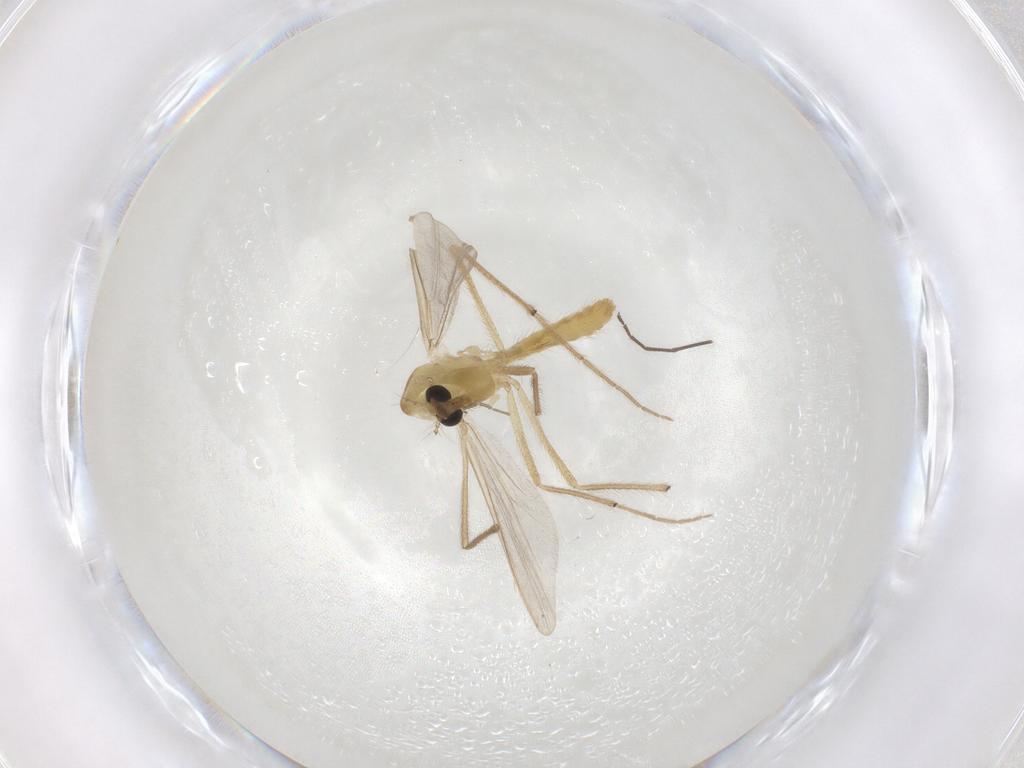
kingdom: Animalia
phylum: Arthropoda
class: Insecta
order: Diptera
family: Chironomidae
